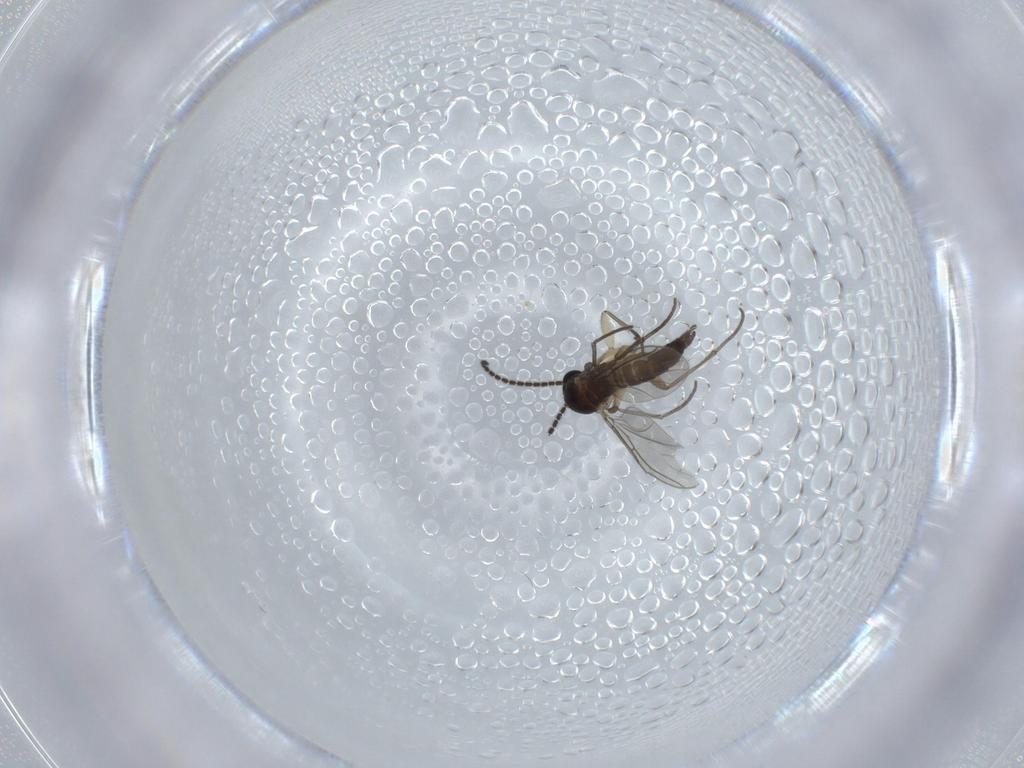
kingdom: Animalia
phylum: Arthropoda
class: Insecta
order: Diptera
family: Sciaridae
